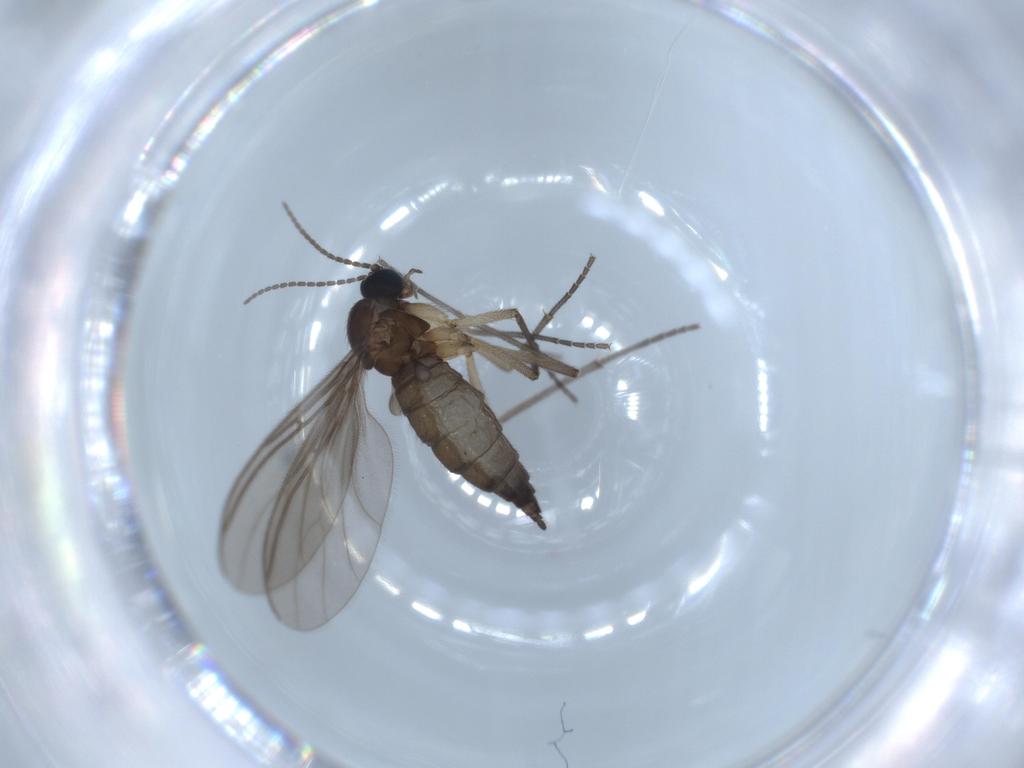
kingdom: Animalia
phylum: Arthropoda
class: Insecta
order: Diptera
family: Sciaridae
